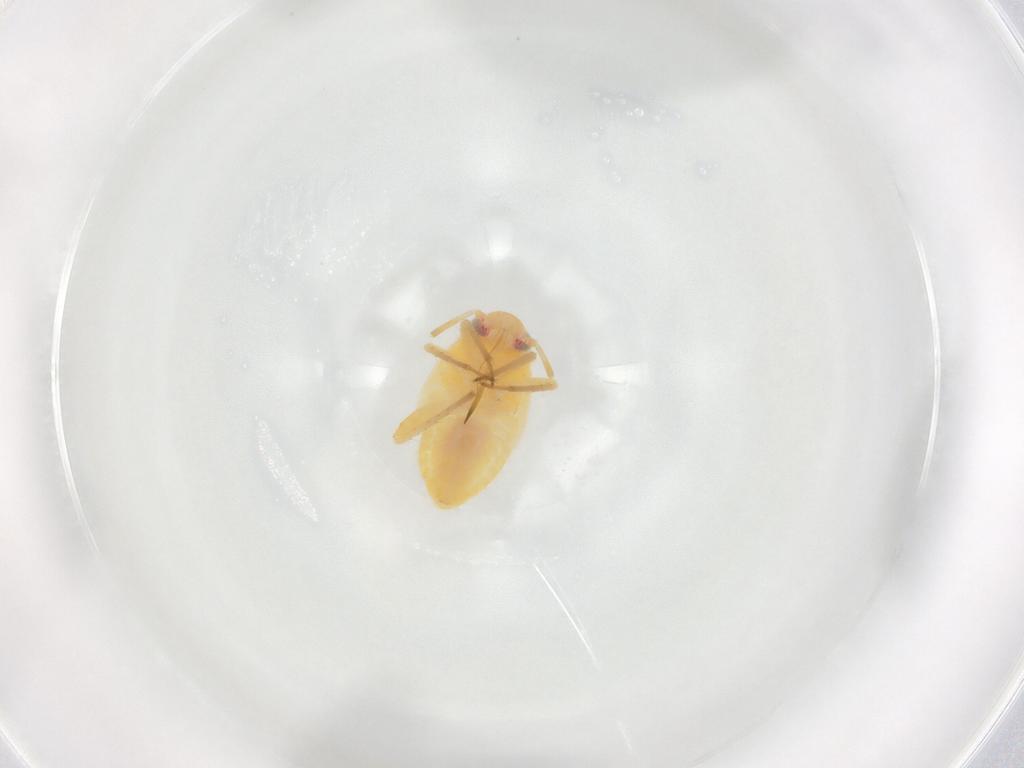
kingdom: Animalia
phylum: Arthropoda
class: Insecta
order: Hemiptera
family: Miridae
